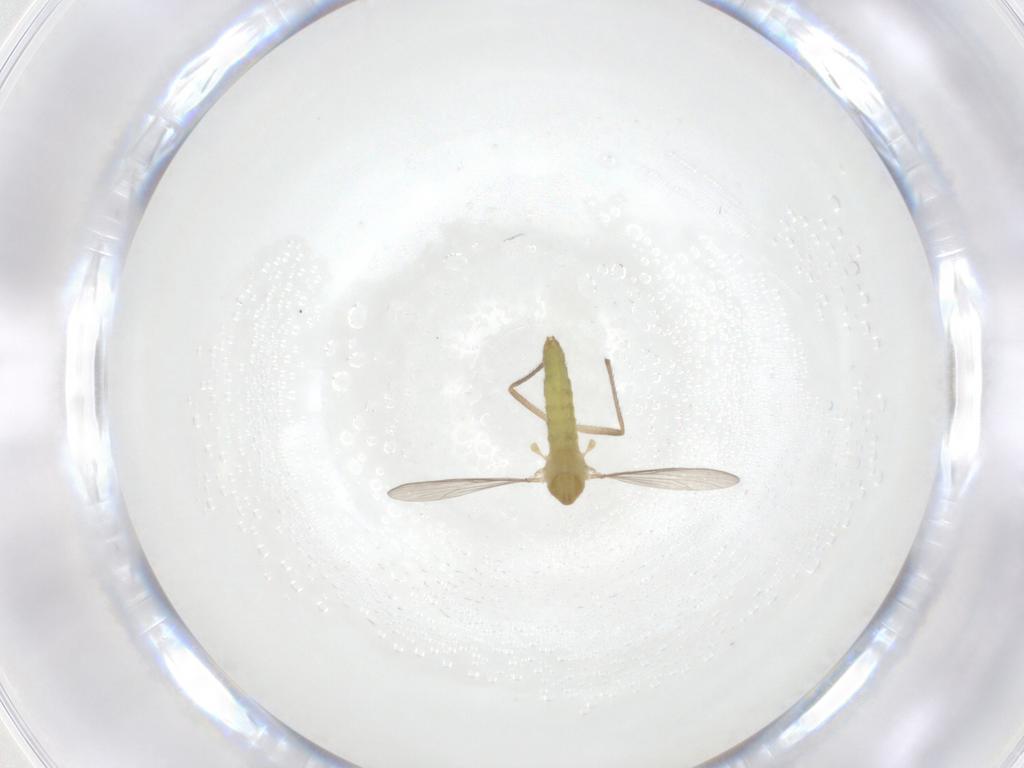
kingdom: Animalia
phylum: Arthropoda
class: Insecta
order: Diptera
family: Chironomidae
